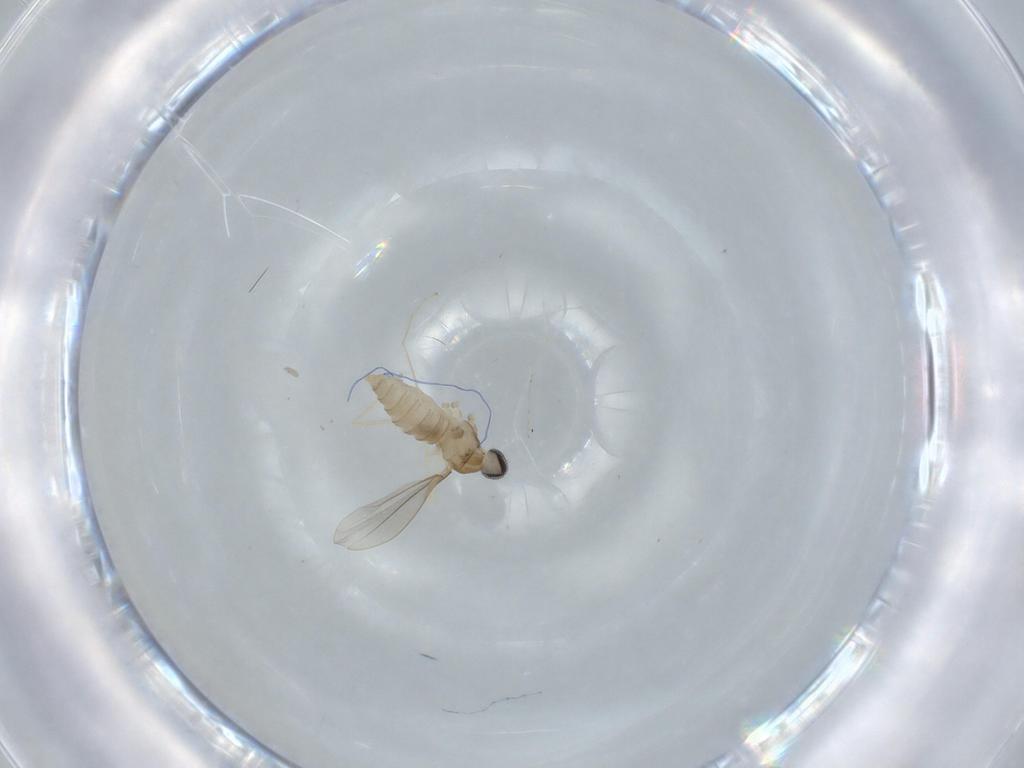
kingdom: Animalia
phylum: Arthropoda
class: Insecta
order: Diptera
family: Cecidomyiidae
